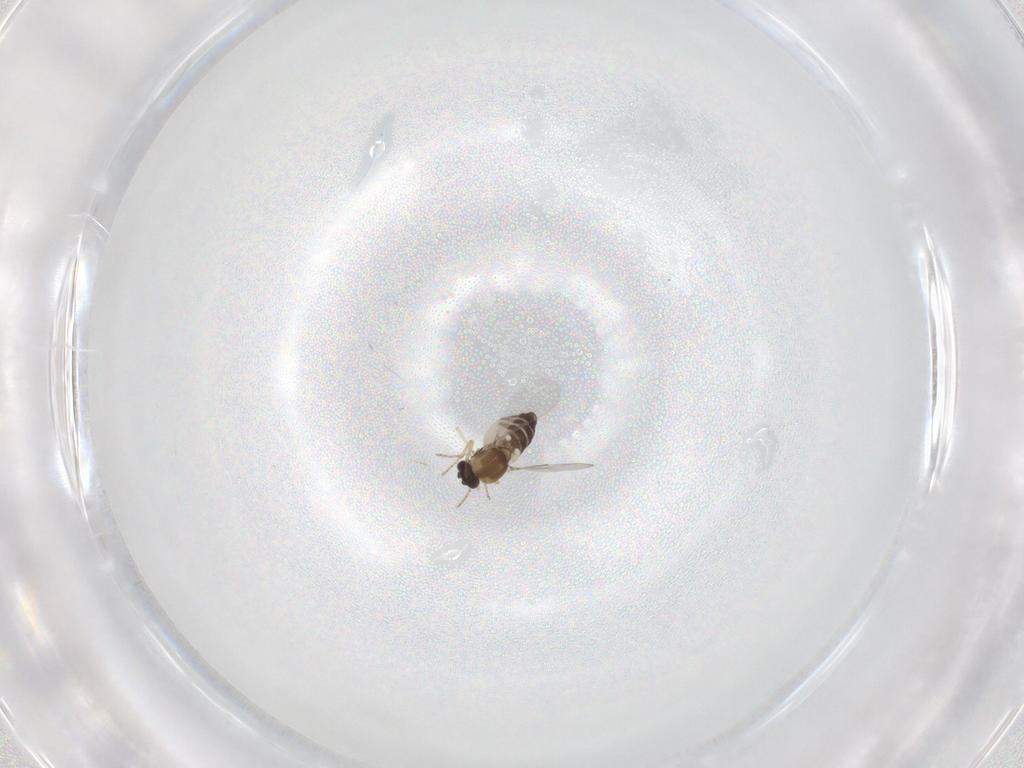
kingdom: Animalia
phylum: Arthropoda
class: Insecta
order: Diptera
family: Ceratopogonidae
